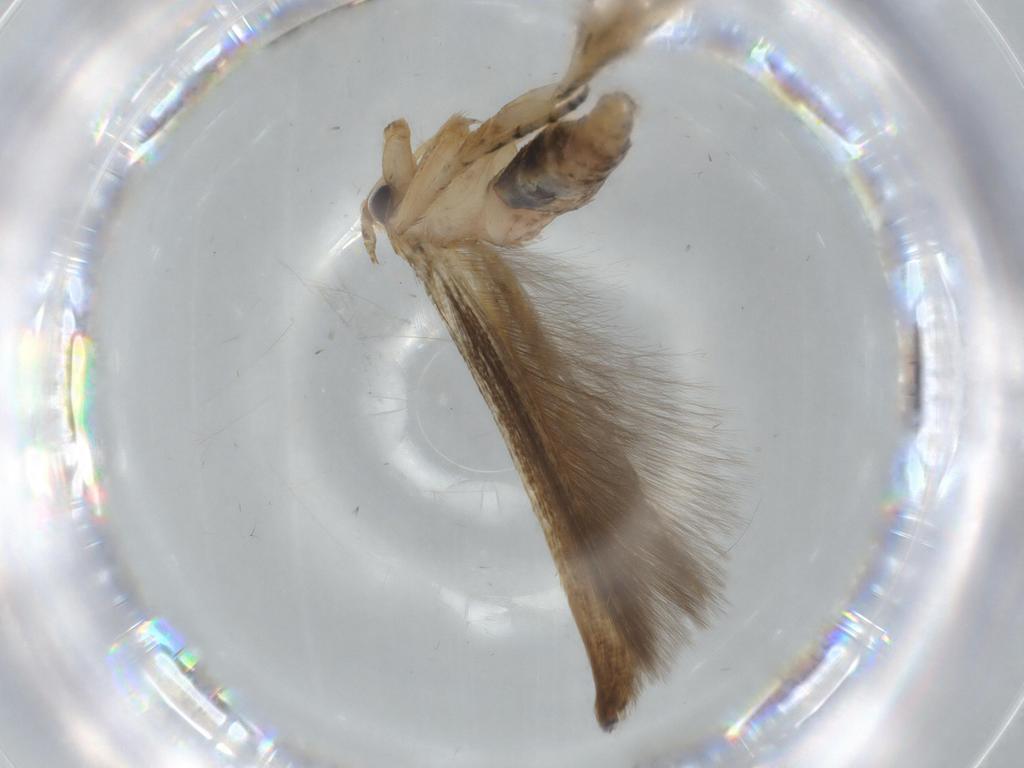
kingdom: Animalia
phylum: Arthropoda
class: Insecta
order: Lepidoptera
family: Heliodinidae
